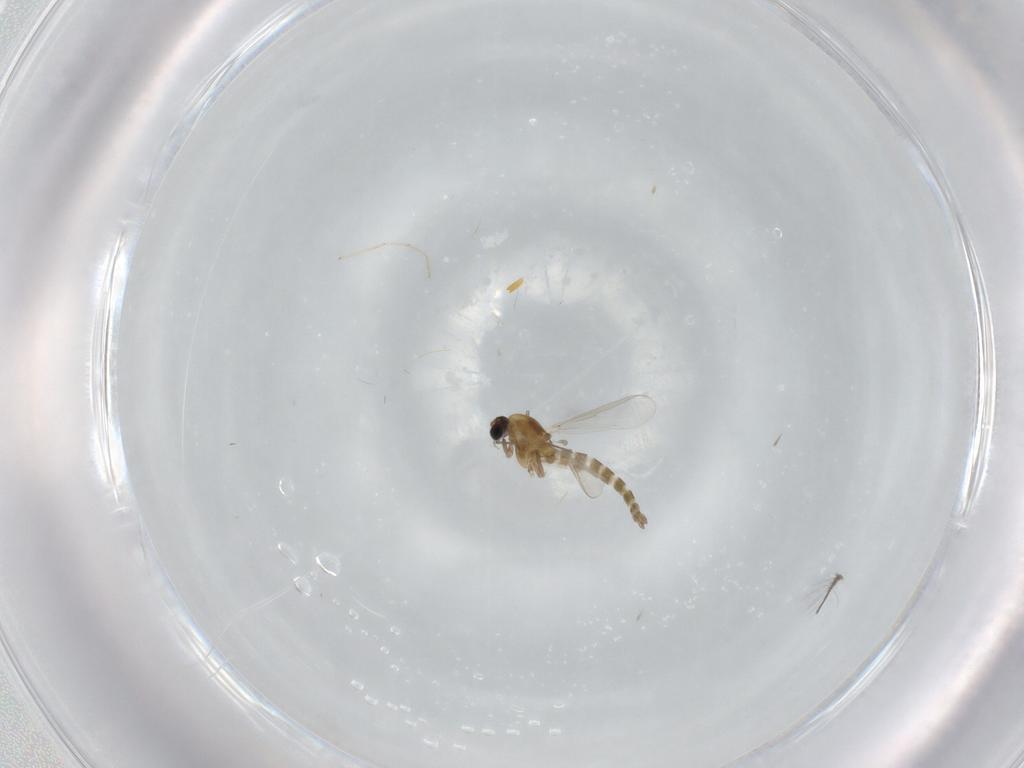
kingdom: Animalia
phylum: Arthropoda
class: Insecta
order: Diptera
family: Chironomidae
